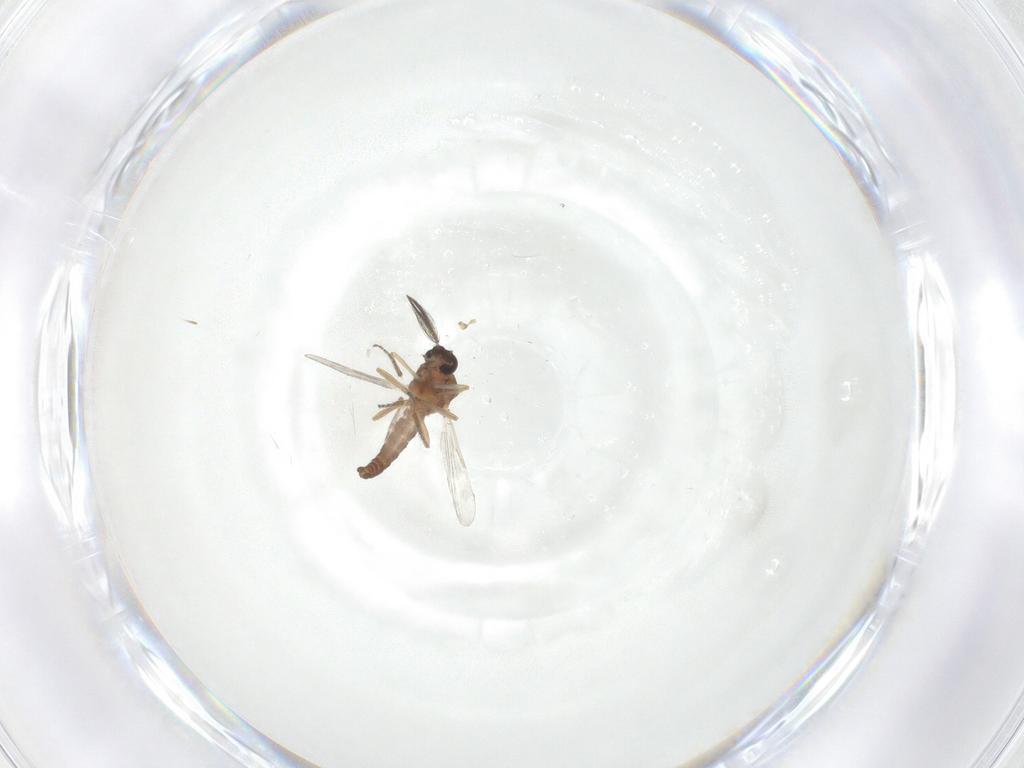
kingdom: Animalia
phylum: Arthropoda
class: Insecta
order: Diptera
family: Ceratopogonidae
